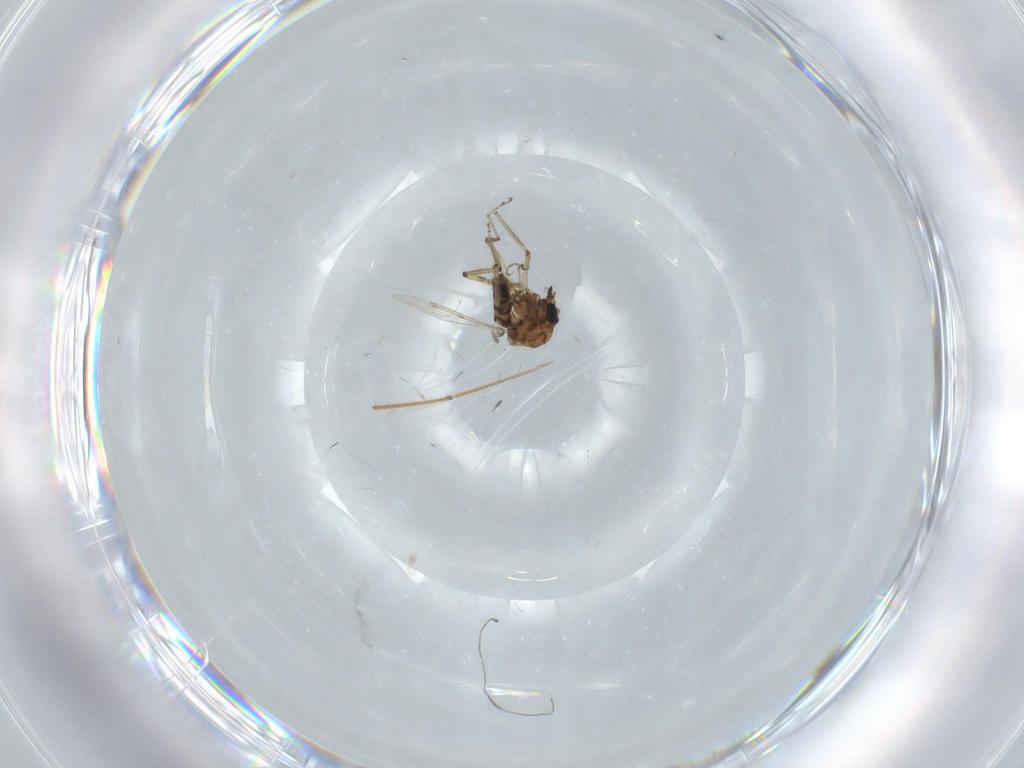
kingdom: Animalia
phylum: Arthropoda
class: Insecta
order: Diptera
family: Ceratopogonidae
